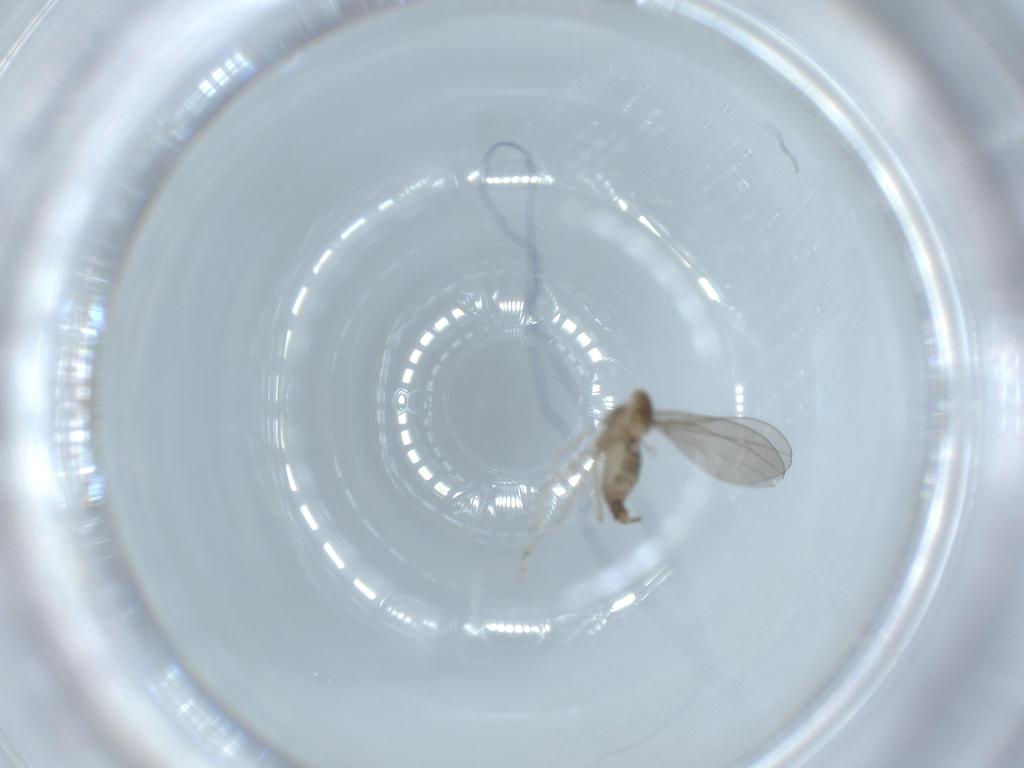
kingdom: Animalia
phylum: Arthropoda
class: Insecta
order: Diptera
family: Cecidomyiidae
